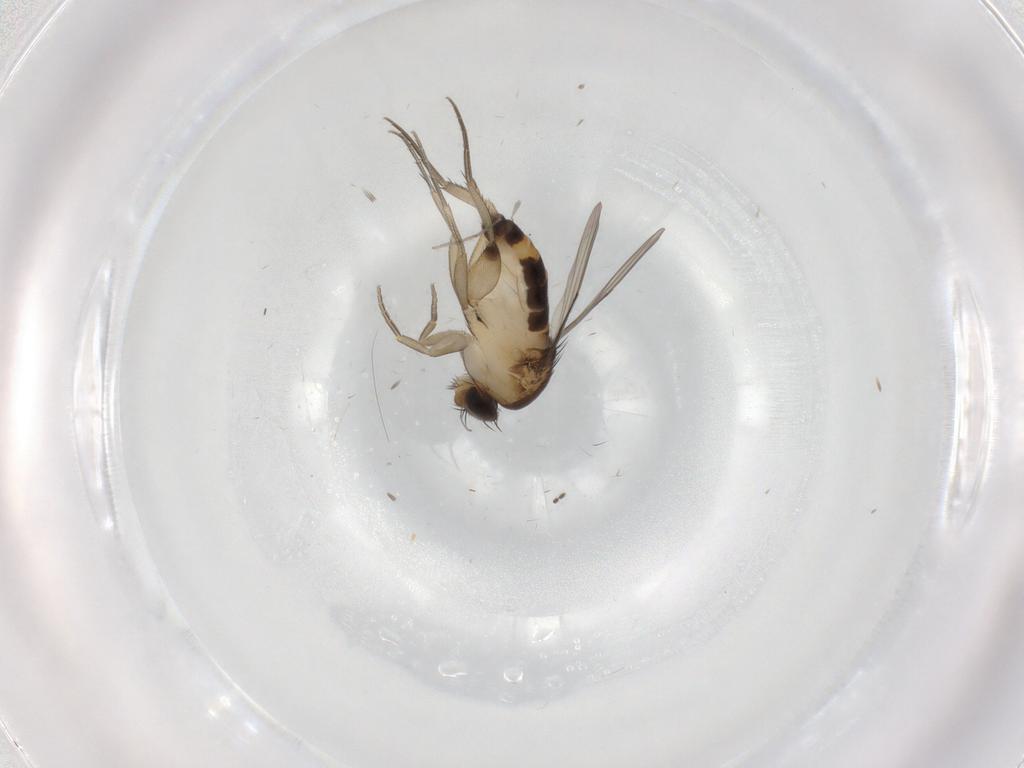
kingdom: Animalia
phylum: Arthropoda
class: Insecta
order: Diptera
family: Sciaridae
